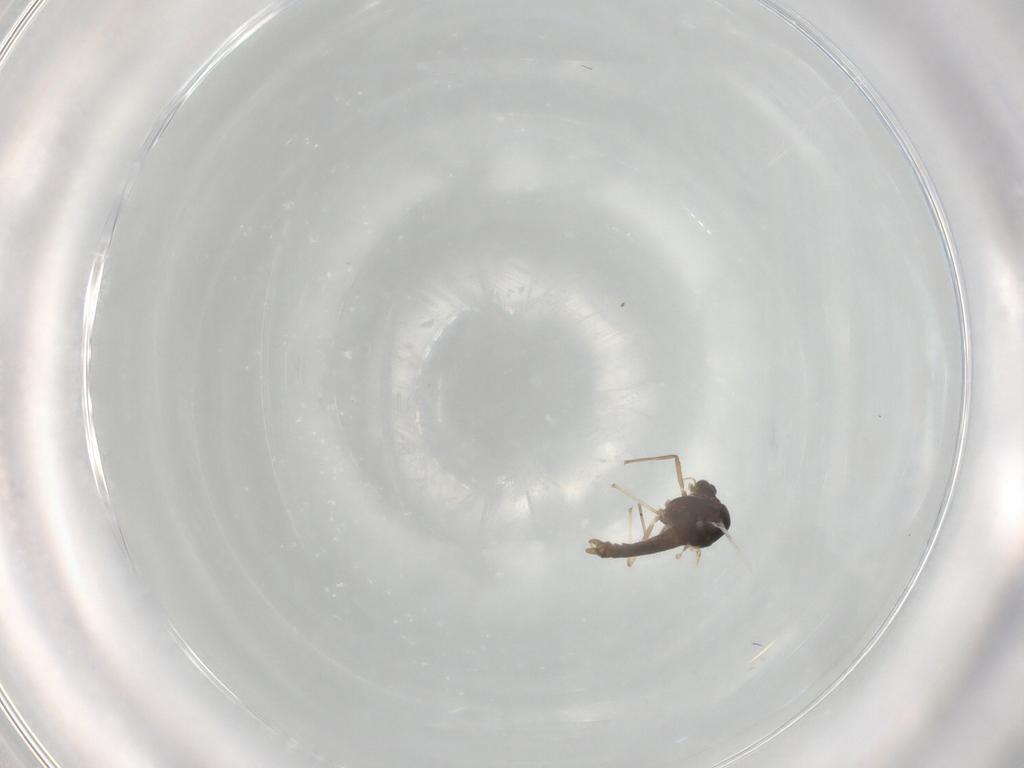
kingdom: Animalia
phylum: Arthropoda
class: Insecta
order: Diptera
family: Chironomidae
